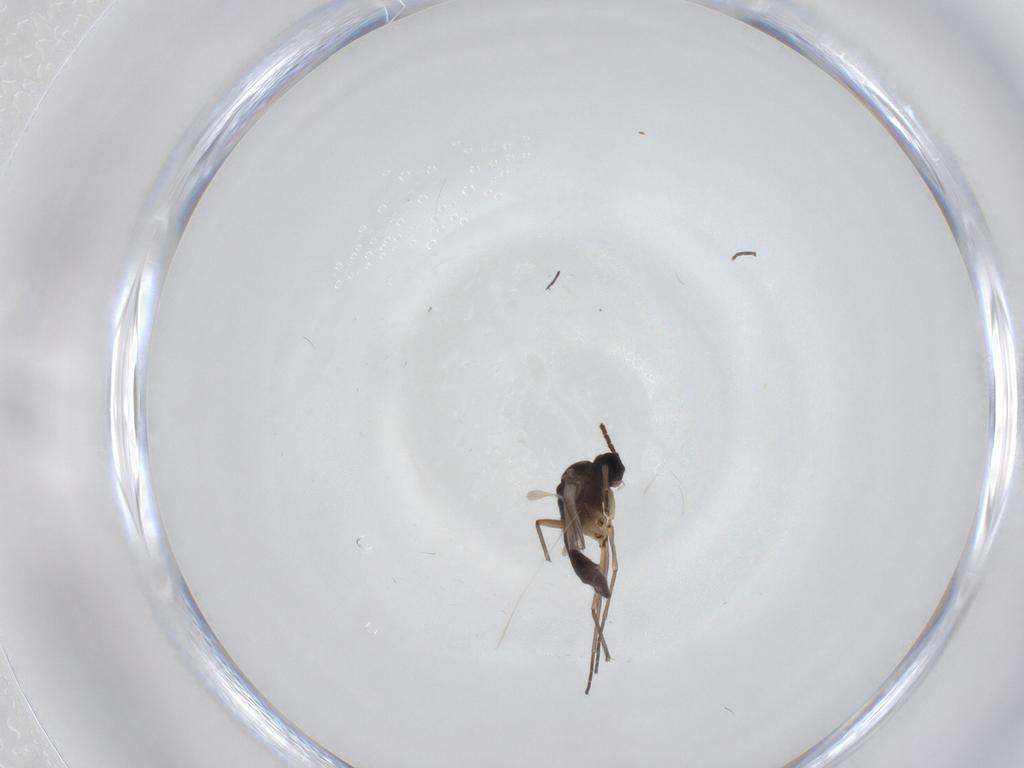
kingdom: Animalia
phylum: Arthropoda
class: Insecta
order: Diptera
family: Sciaridae
